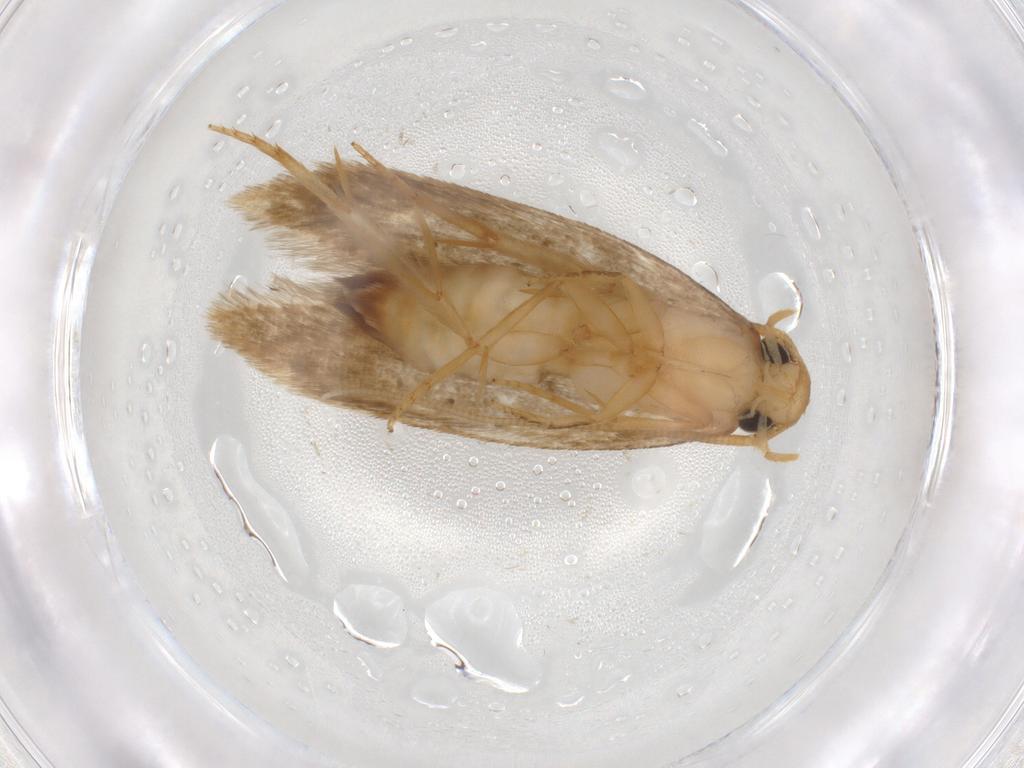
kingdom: Animalia
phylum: Arthropoda
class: Insecta
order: Lepidoptera
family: Tineidae
